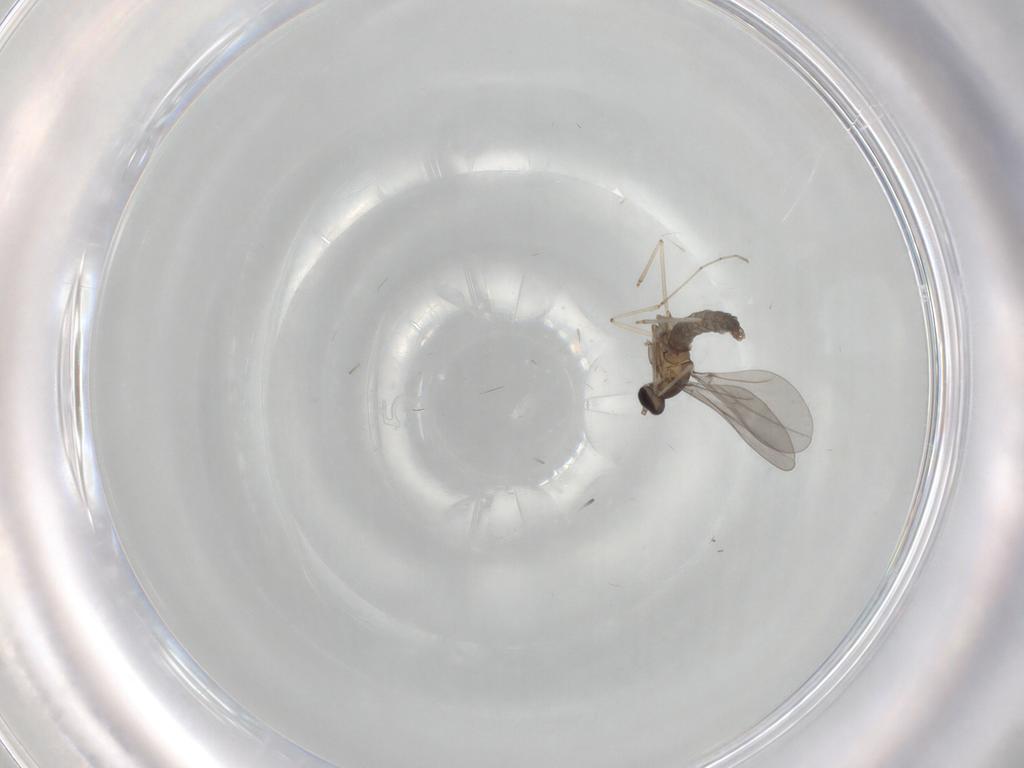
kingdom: Animalia
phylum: Arthropoda
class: Insecta
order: Diptera
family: Cecidomyiidae
